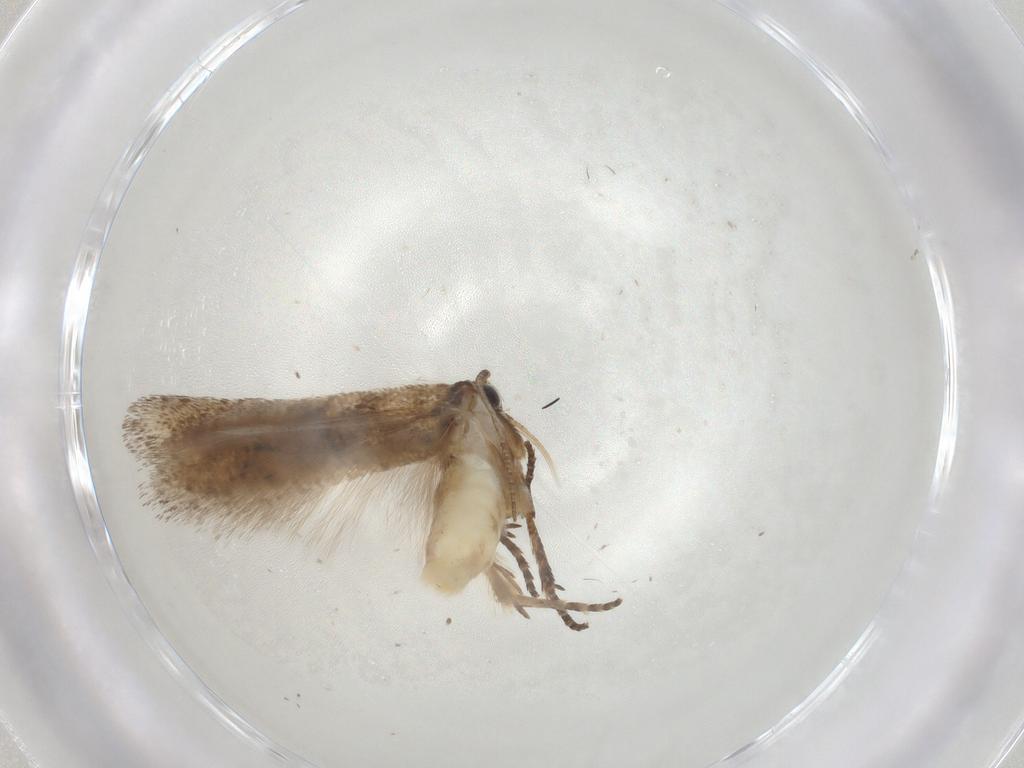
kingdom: Animalia
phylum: Arthropoda
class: Insecta
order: Lepidoptera
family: Gelechiidae
